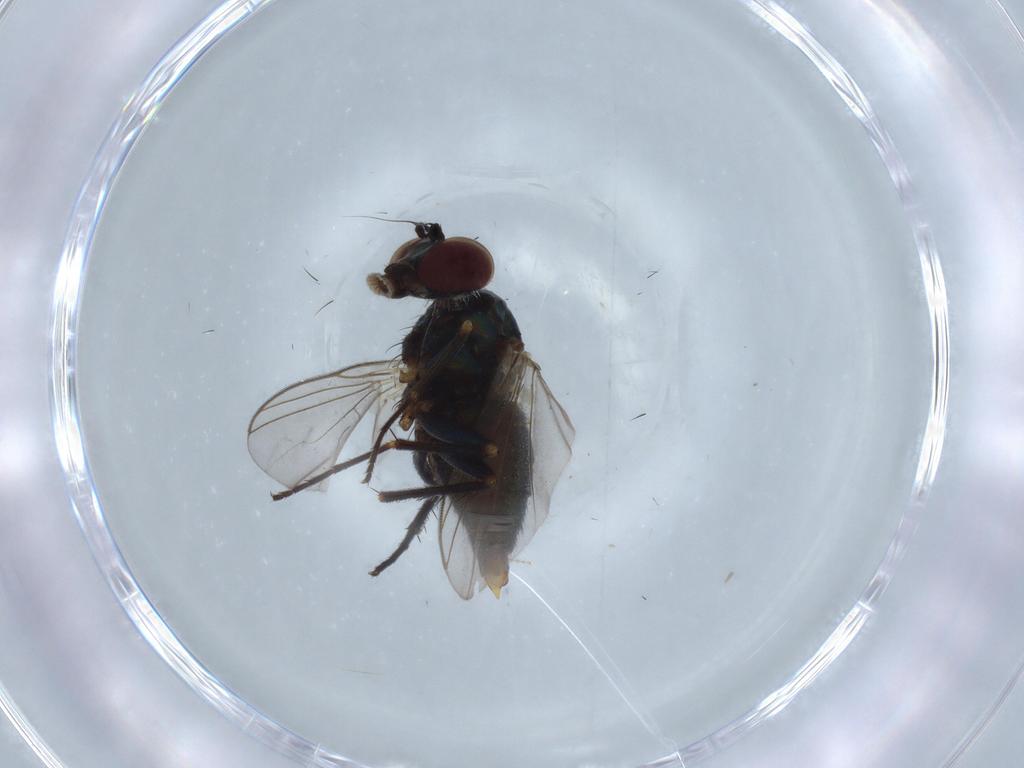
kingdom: Animalia
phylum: Arthropoda
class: Insecta
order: Diptera
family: Dolichopodidae
